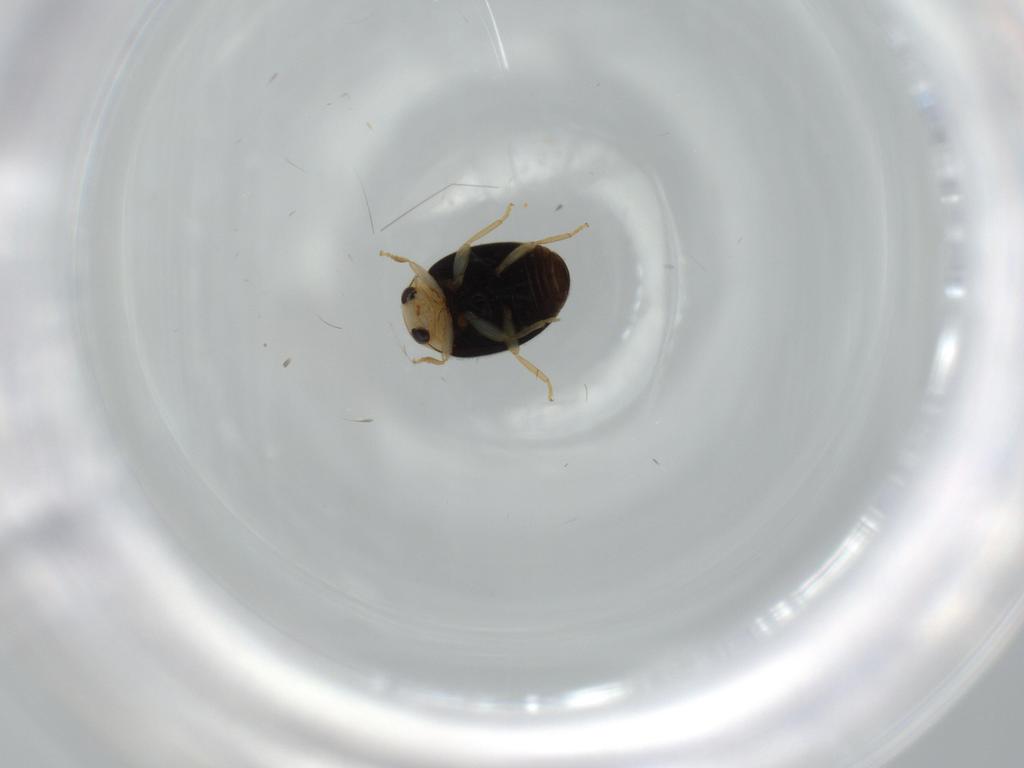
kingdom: Animalia
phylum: Arthropoda
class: Insecta
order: Coleoptera
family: Coccinellidae
